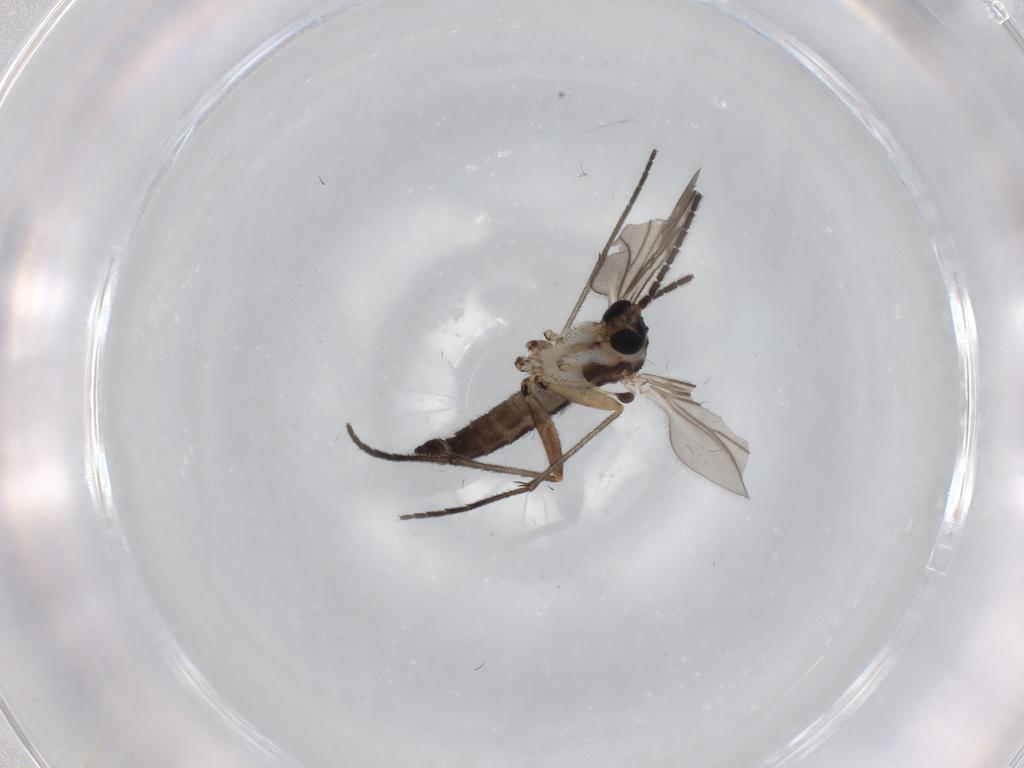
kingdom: Animalia
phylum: Arthropoda
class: Insecta
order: Diptera
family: Sciaridae
